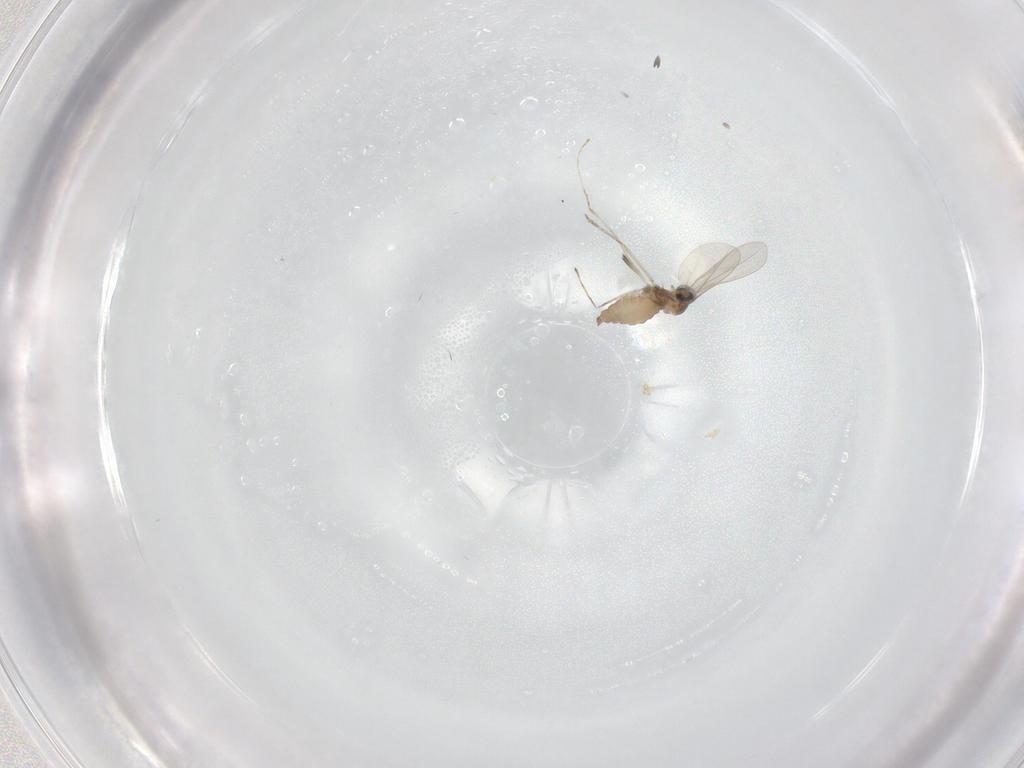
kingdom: Animalia
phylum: Arthropoda
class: Insecta
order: Diptera
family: Cecidomyiidae
